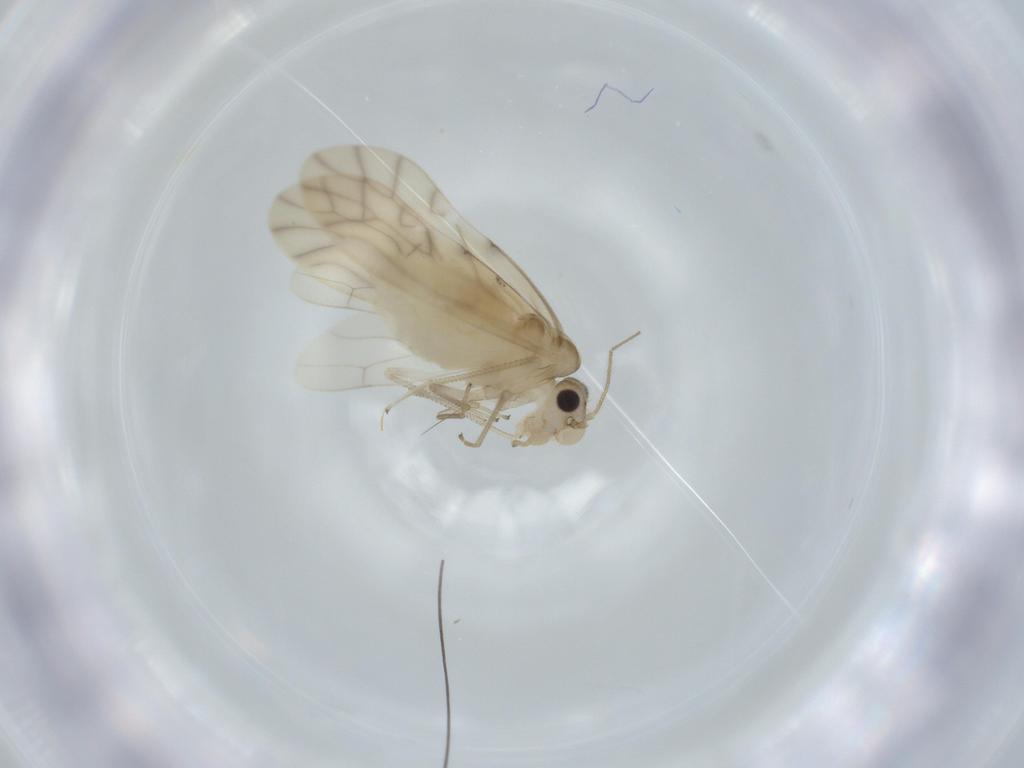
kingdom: Animalia
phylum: Arthropoda
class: Insecta
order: Psocodea
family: Caeciliusidae
